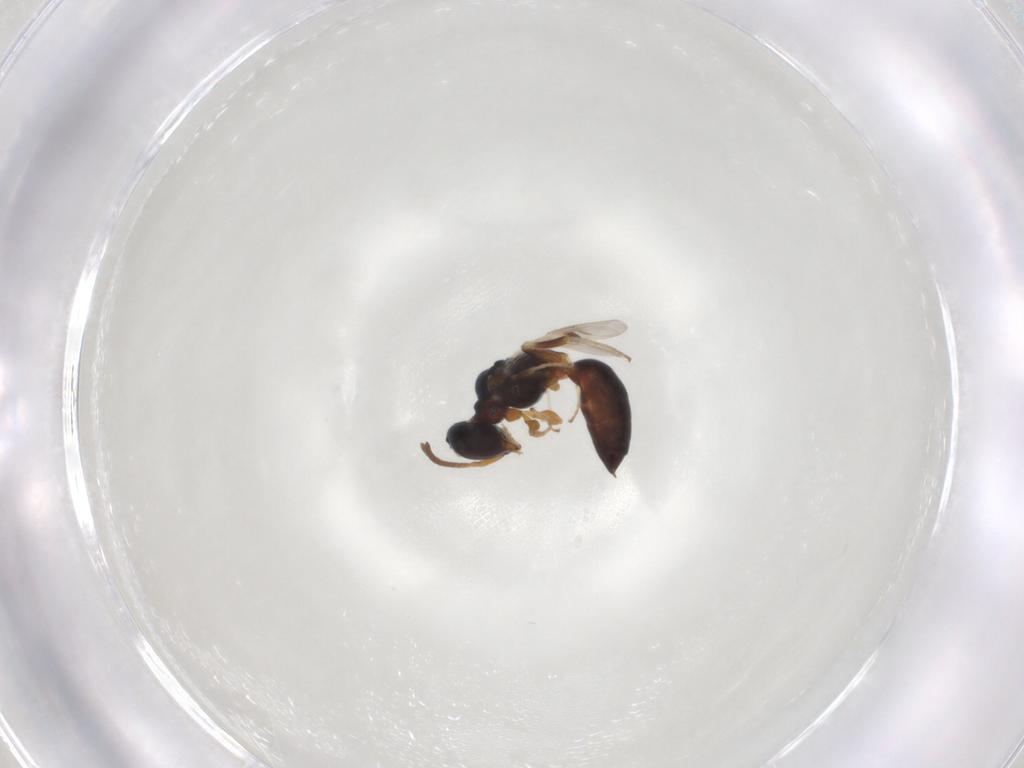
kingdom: Animalia
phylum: Arthropoda
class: Insecta
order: Hymenoptera
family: Pemphredonidae
